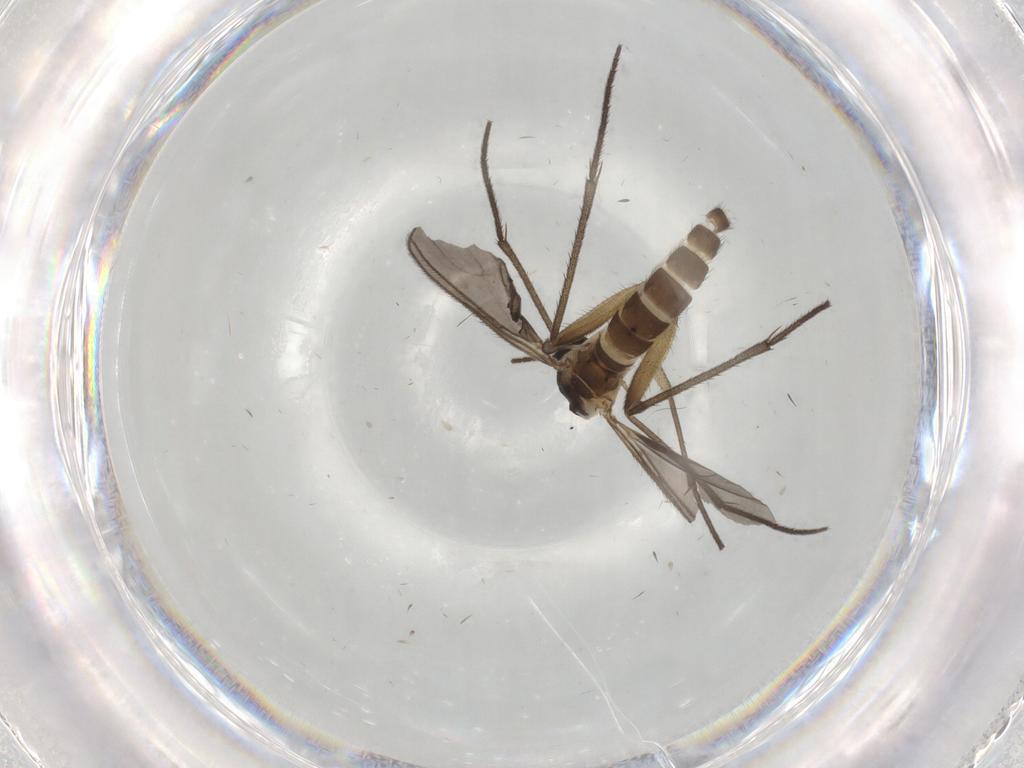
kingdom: Animalia
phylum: Arthropoda
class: Insecta
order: Diptera
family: Sciaridae
